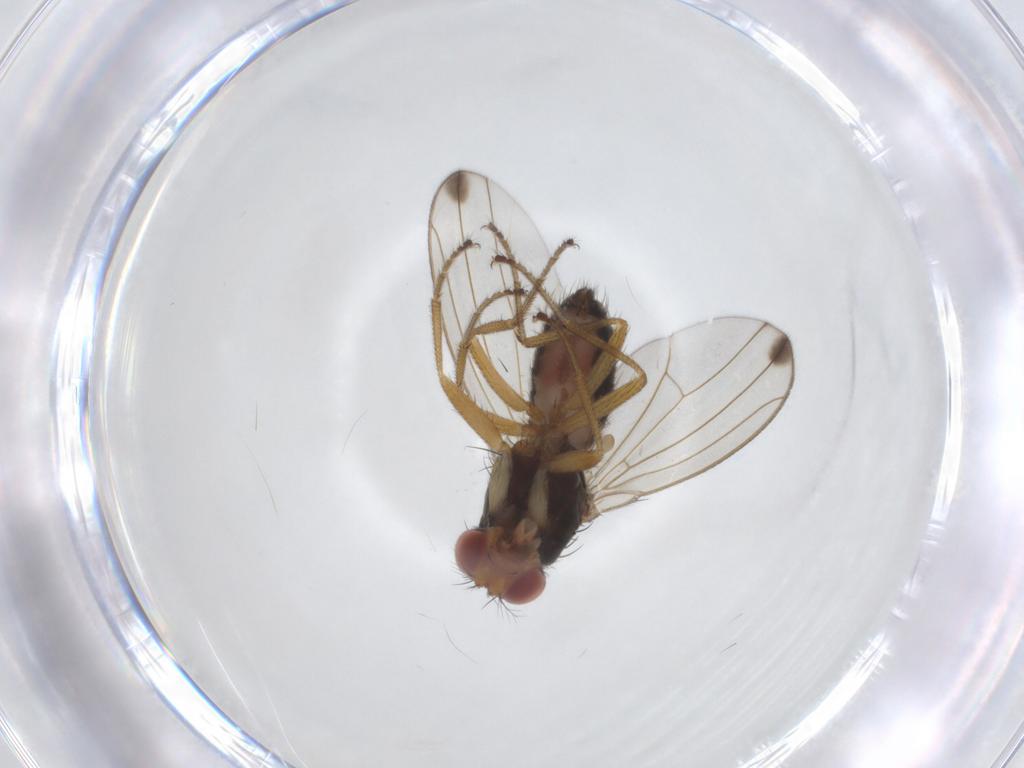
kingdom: Animalia
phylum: Arthropoda
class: Insecta
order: Diptera
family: Drosophilidae
